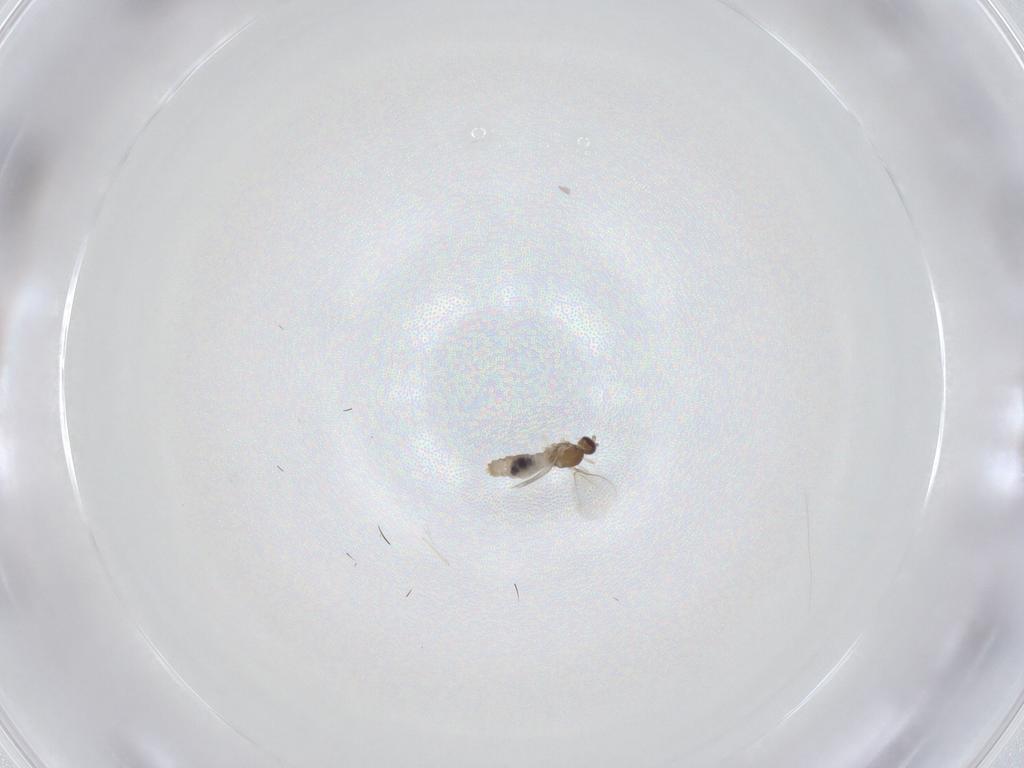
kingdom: Animalia
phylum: Arthropoda
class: Insecta
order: Diptera
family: Cecidomyiidae
